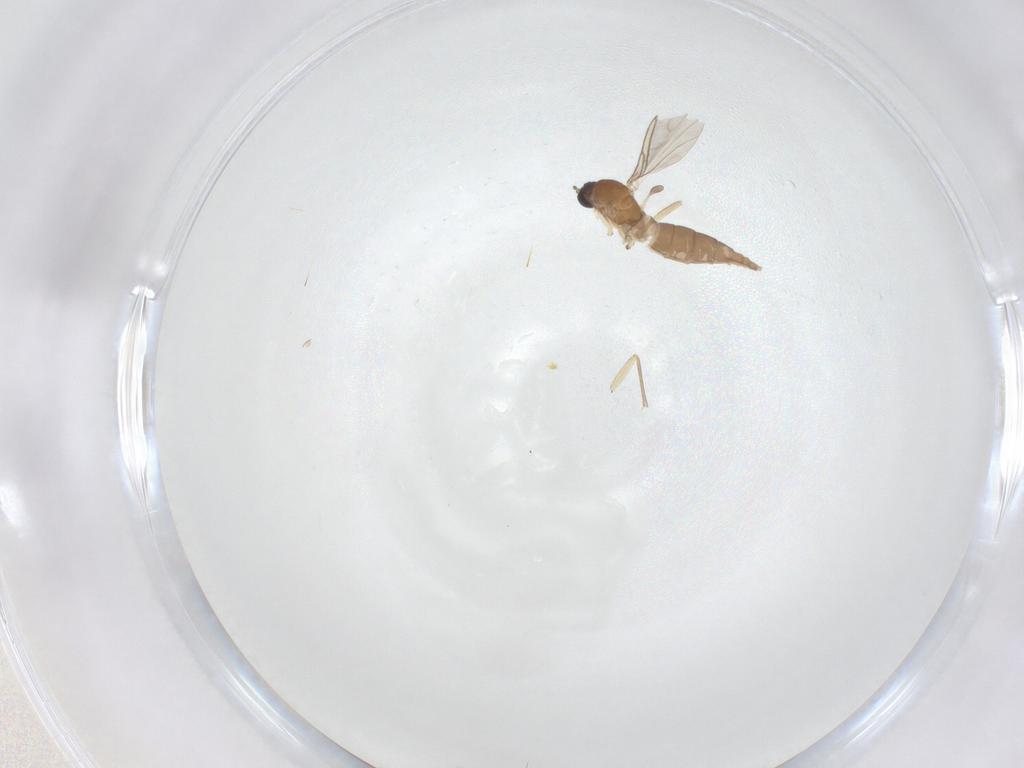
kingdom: Animalia
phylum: Arthropoda
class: Insecta
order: Diptera
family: Sciaridae
